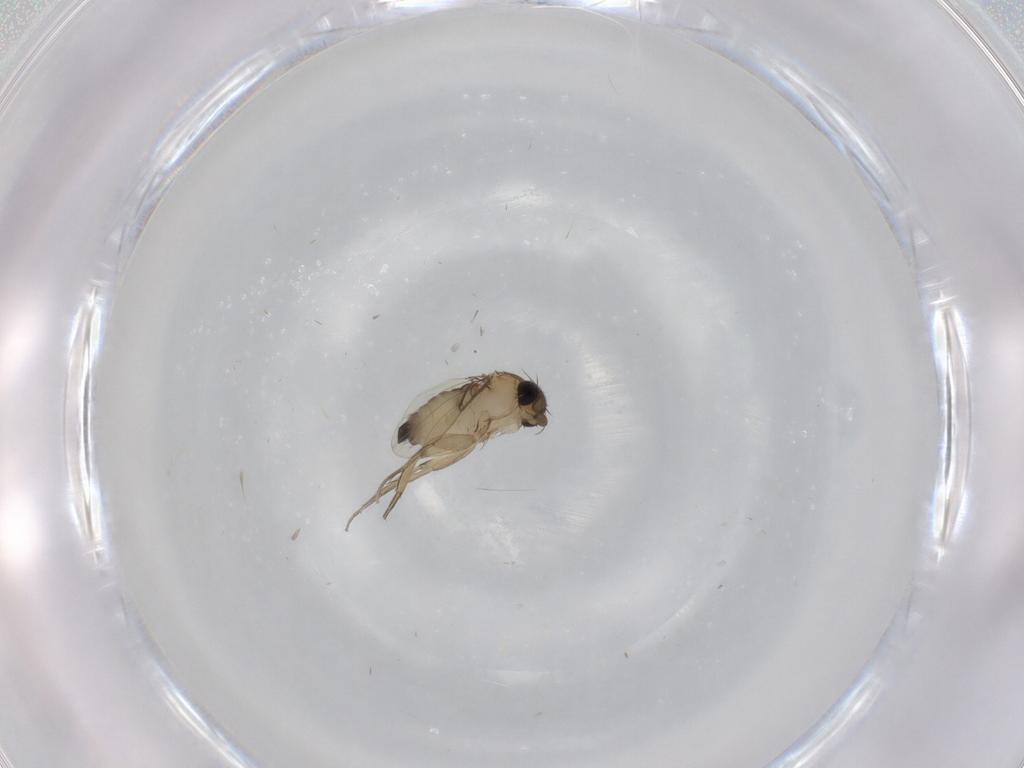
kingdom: Animalia
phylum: Arthropoda
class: Insecta
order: Diptera
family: Phoridae
